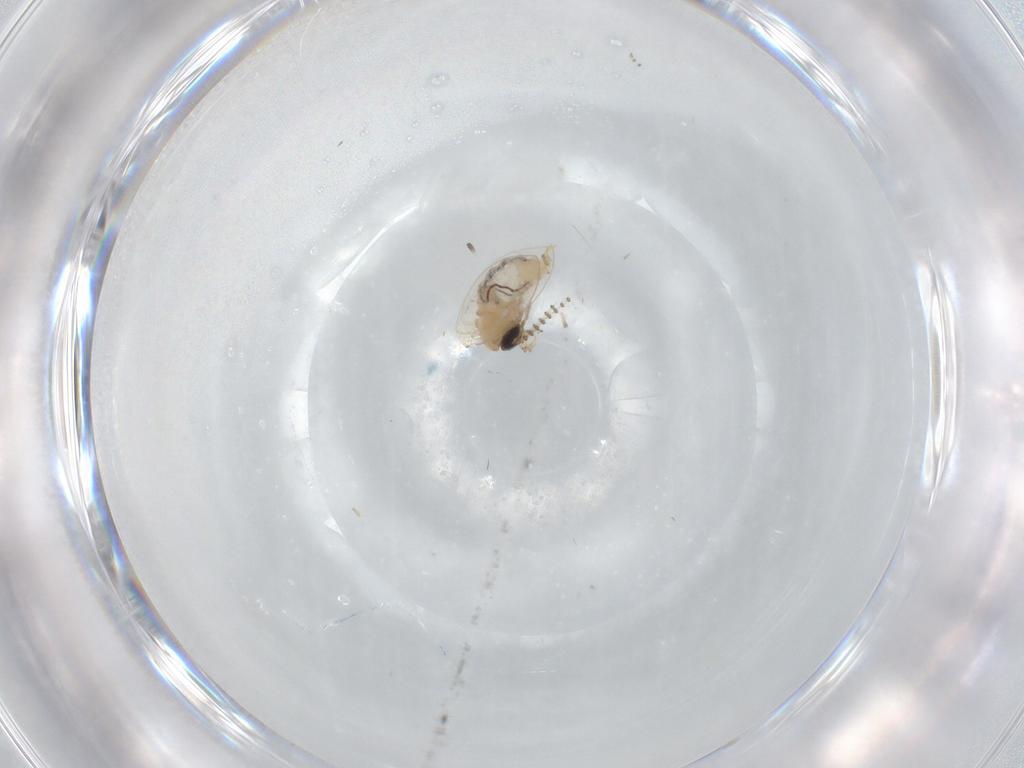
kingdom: Animalia
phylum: Arthropoda
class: Insecta
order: Diptera
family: Psychodidae
